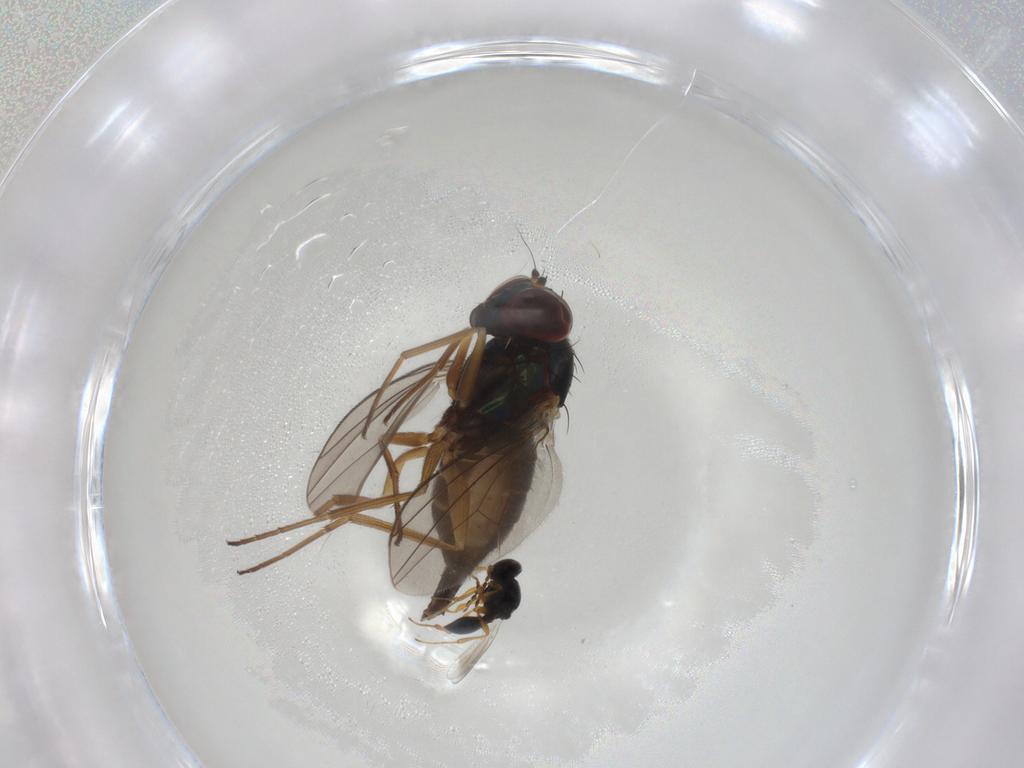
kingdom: Animalia
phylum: Arthropoda
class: Insecta
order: Diptera
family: Dolichopodidae
